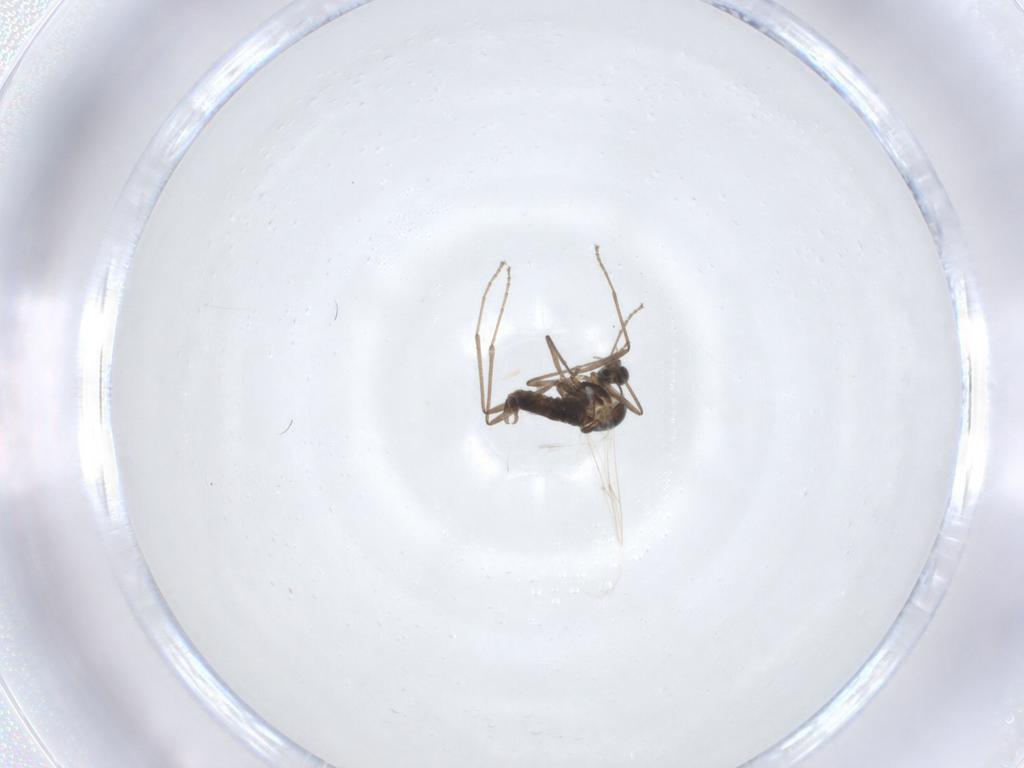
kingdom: Animalia
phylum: Arthropoda
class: Insecta
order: Diptera
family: Cecidomyiidae
